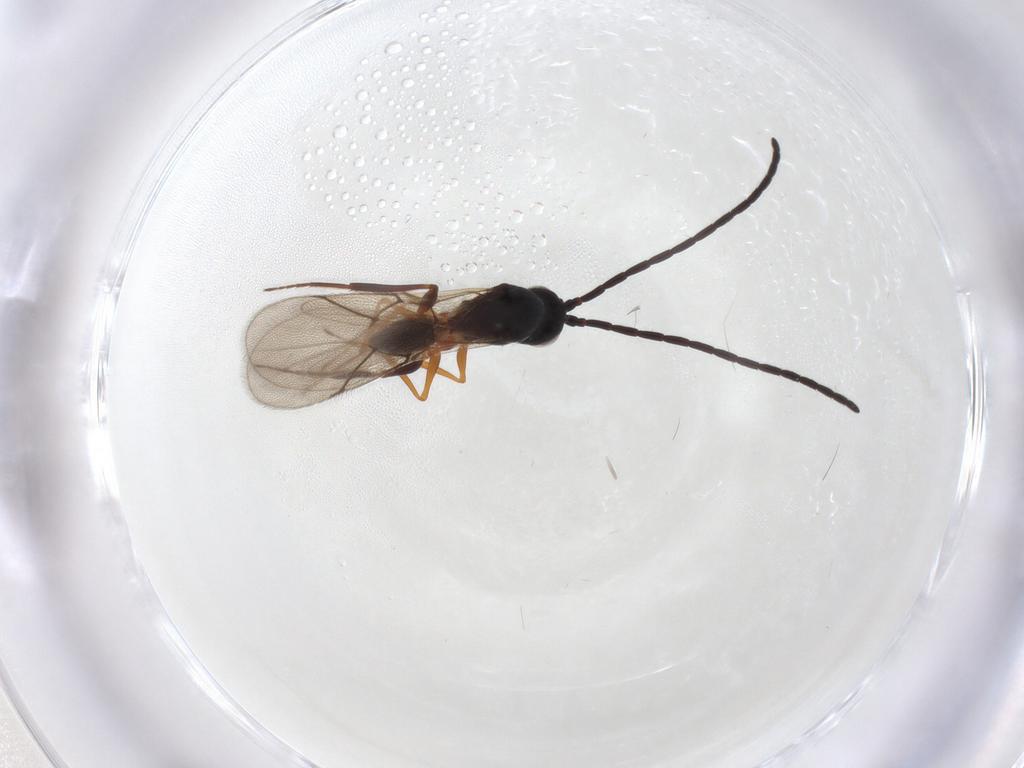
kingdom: Animalia
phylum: Arthropoda
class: Insecta
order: Hymenoptera
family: Figitidae
